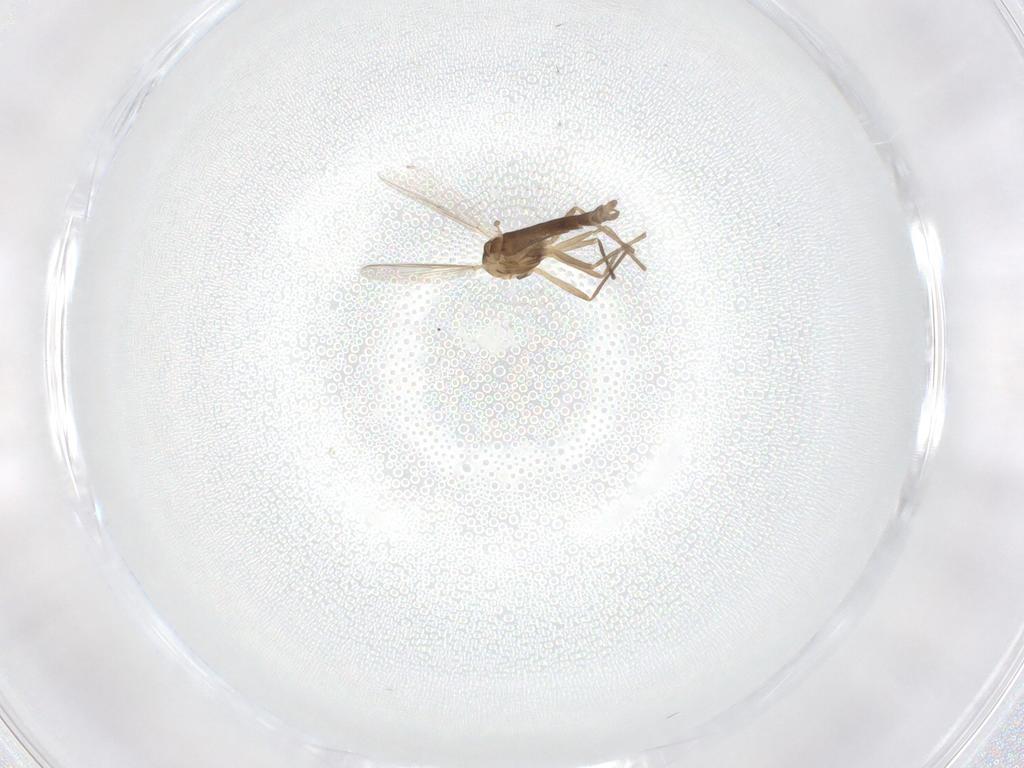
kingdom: Animalia
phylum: Arthropoda
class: Insecta
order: Diptera
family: Chironomidae
